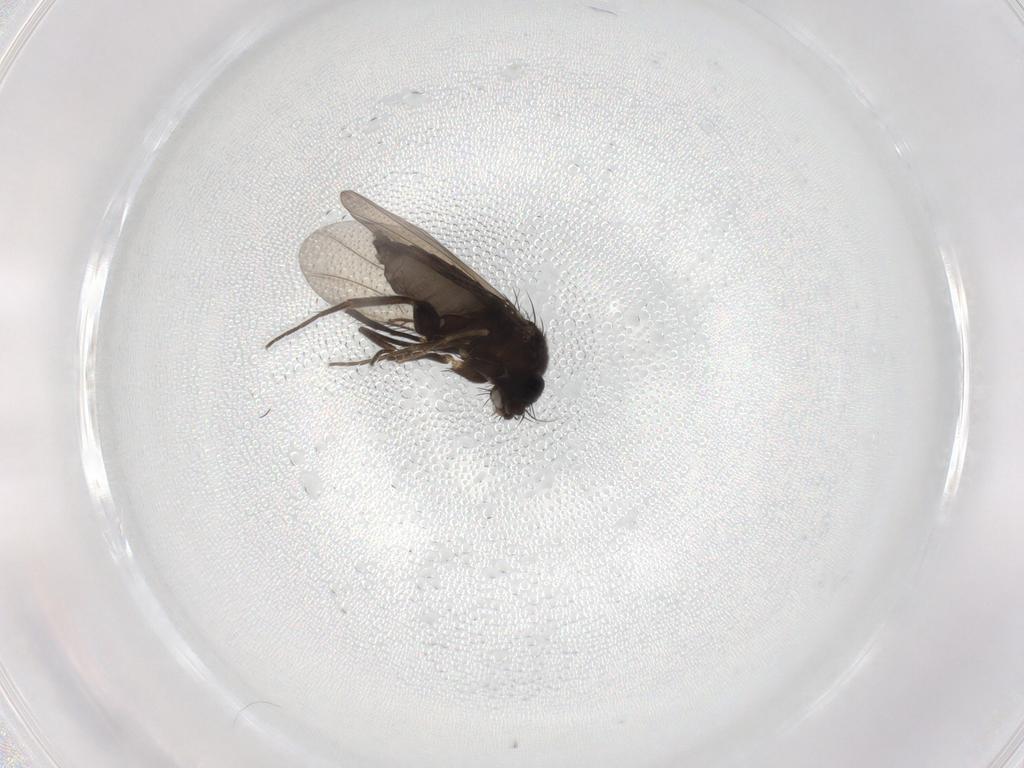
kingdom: Animalia
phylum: Arthropoda
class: Insecta
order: Diptera
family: Phoridae
